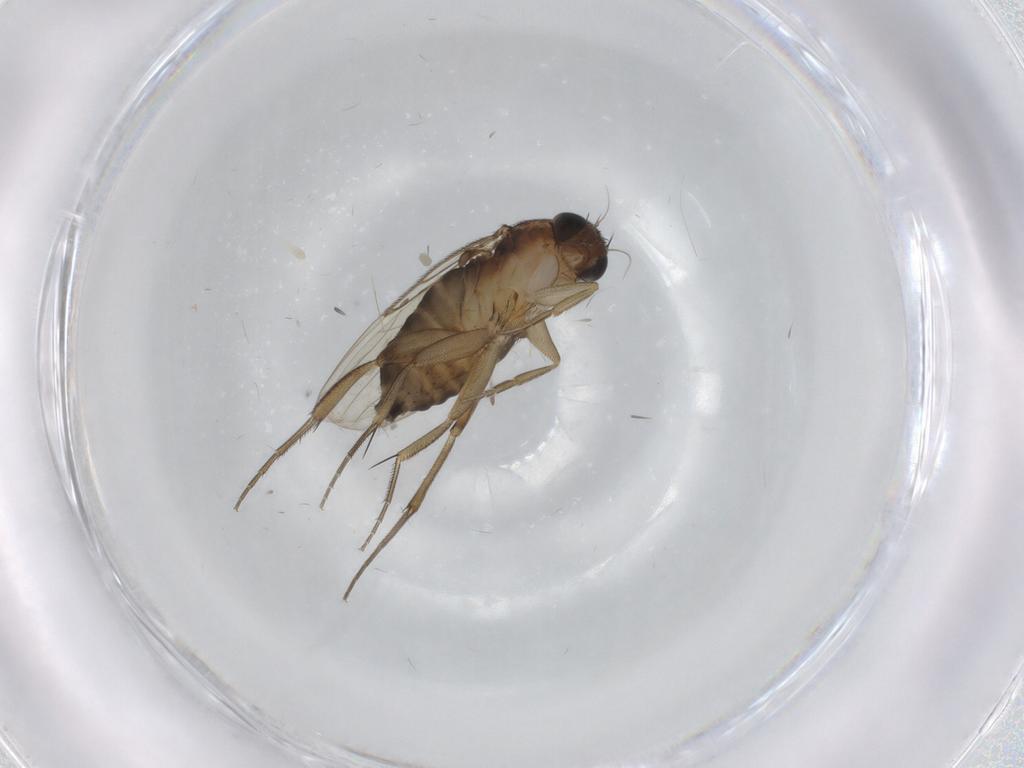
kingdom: Animalia
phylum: Arthropoda
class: Insecta
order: Diptera
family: Phoridae
